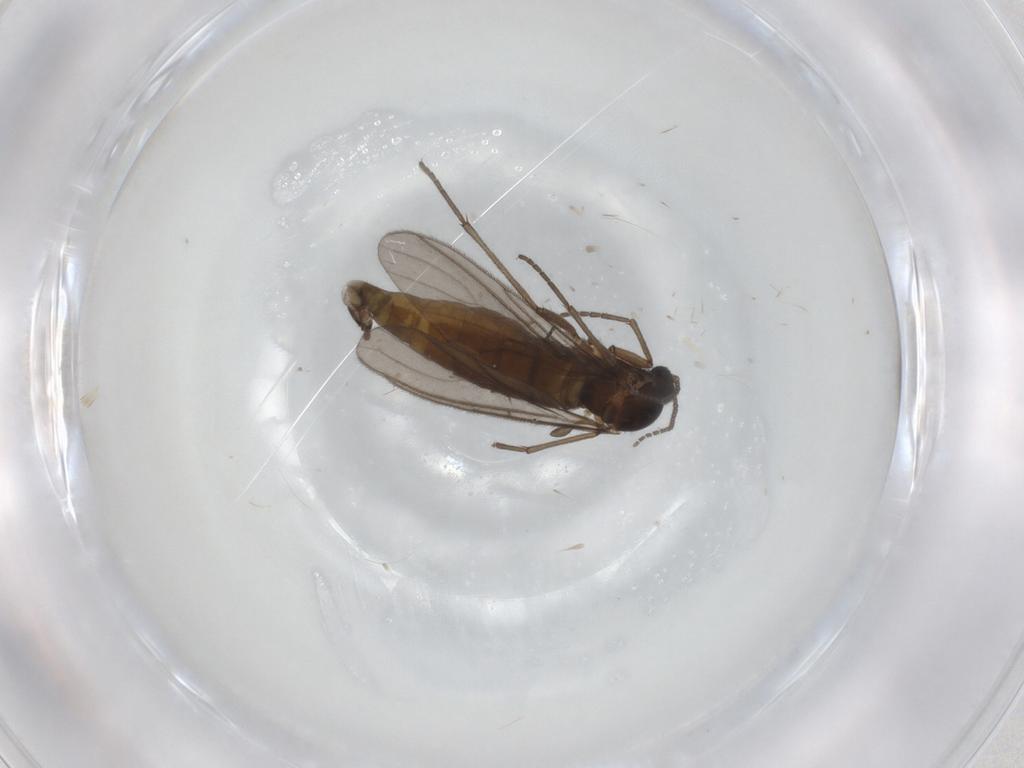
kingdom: Animalia
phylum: Arthropoda
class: Insecta
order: Diptera
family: Sciaridae
